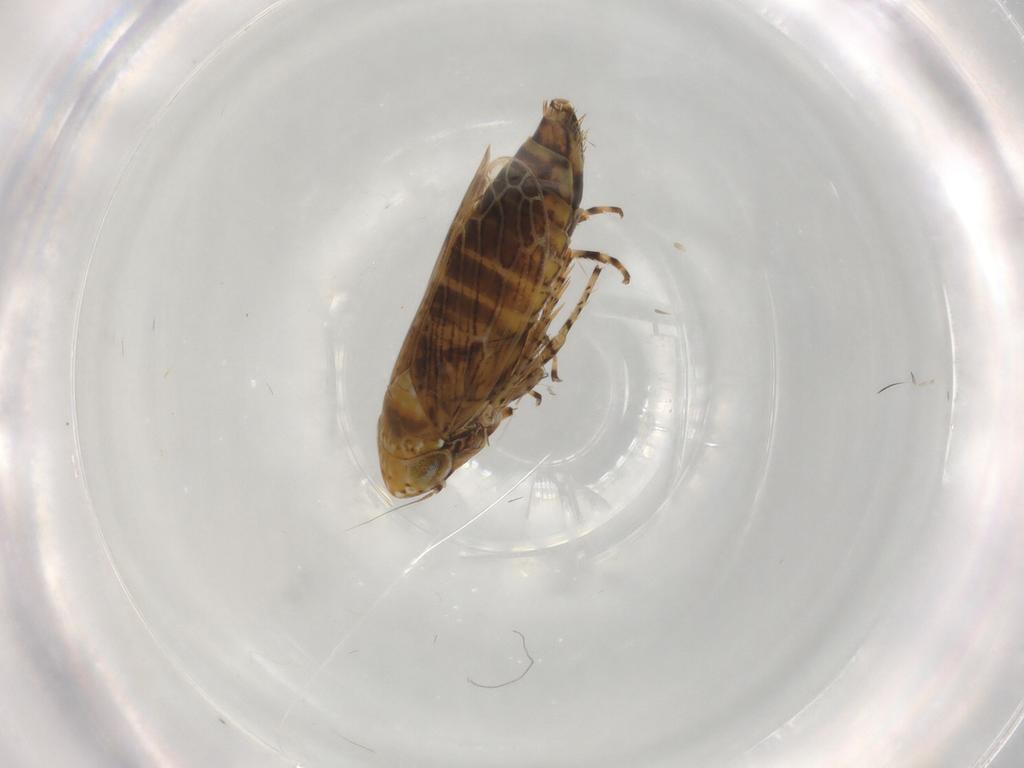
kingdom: Animalia
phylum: Arthropoda
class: Insecta
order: Hemiptera
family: Cicadellidae
